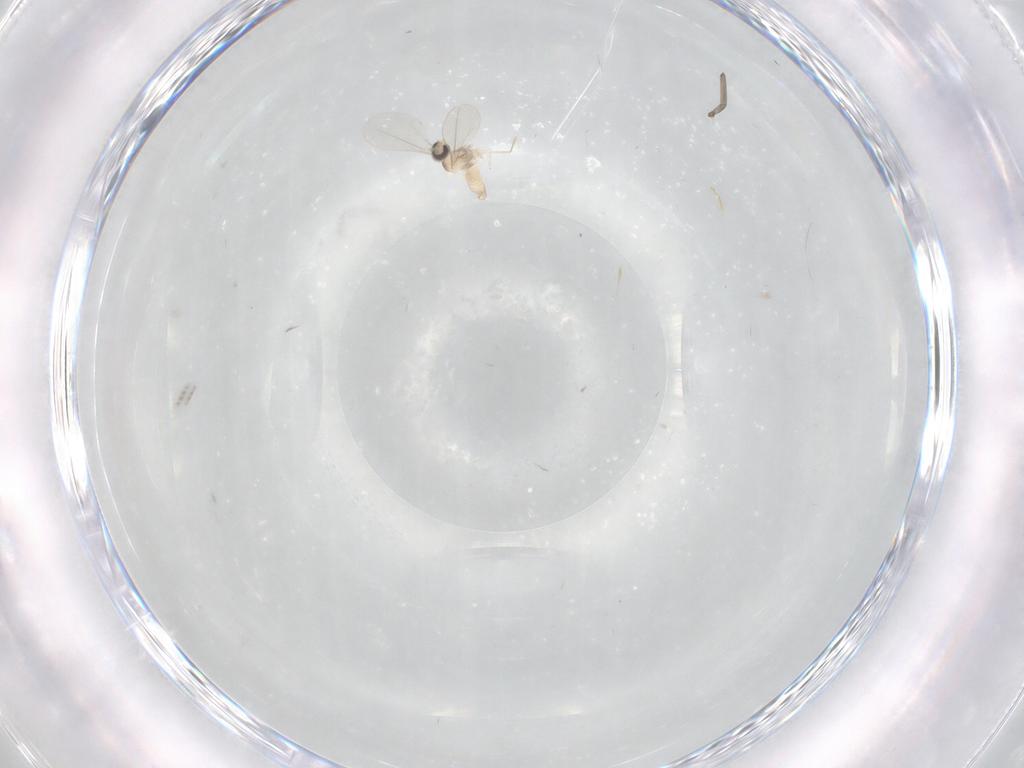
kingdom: Animalia
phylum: Arthropoda
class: Insecta
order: Diptera
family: Cecidomyiidae
